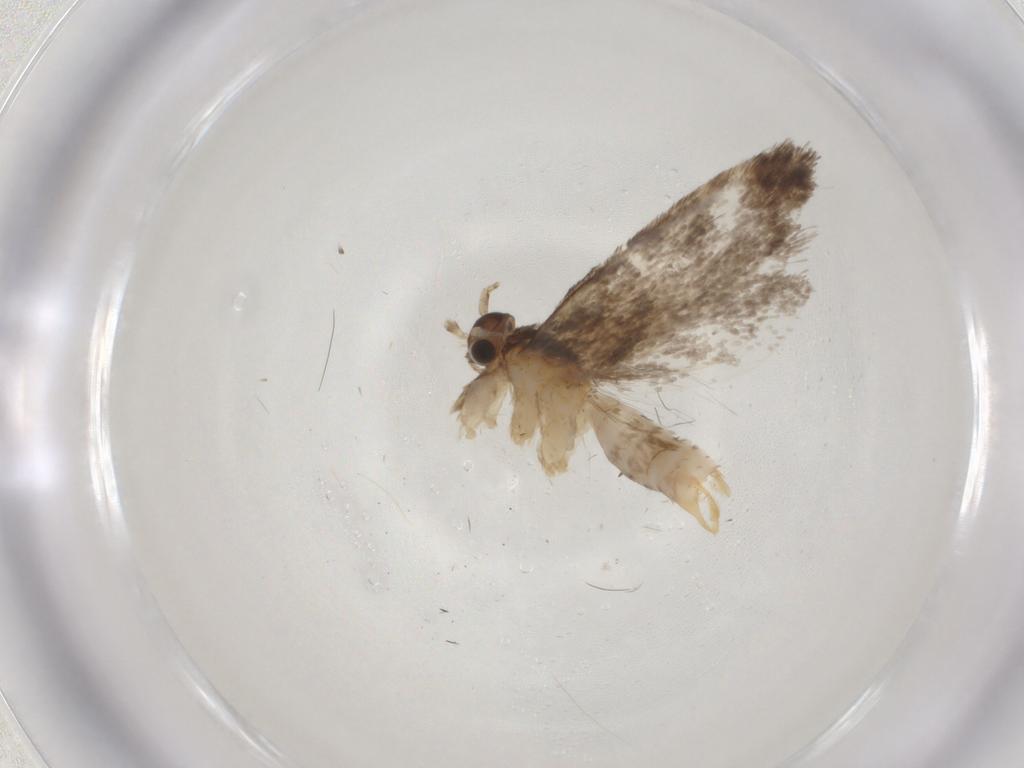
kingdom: Animalia
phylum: Arthropoda
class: Insecta
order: Lepidoptera
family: Dryadaulidae
